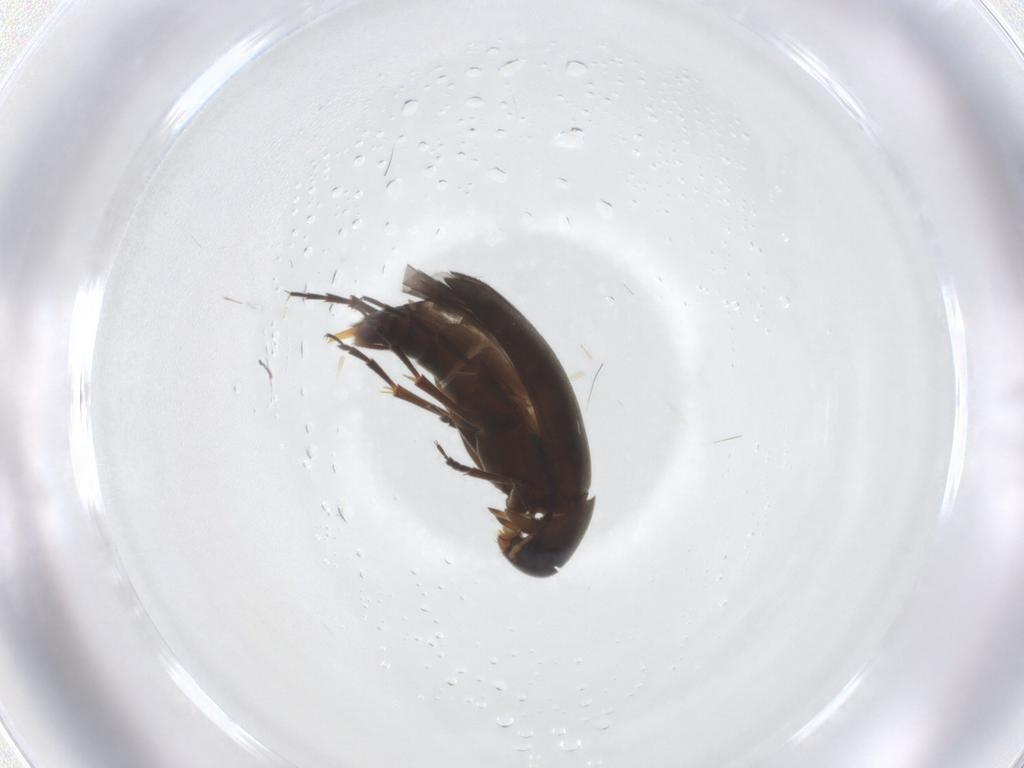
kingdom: Animalia
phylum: Arthropoda
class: Insecta
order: Coleoptera
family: Scraptiidae
